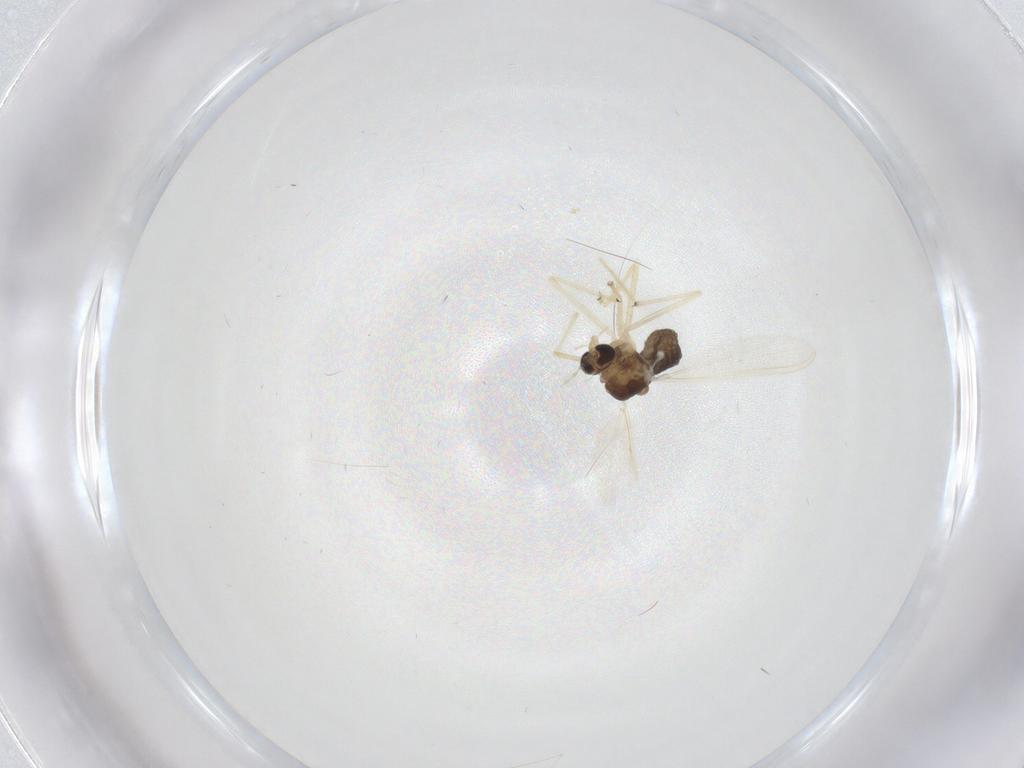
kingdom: Animalia
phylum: Arthropoda
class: Insecta
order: Diptera
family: Chironomidae
